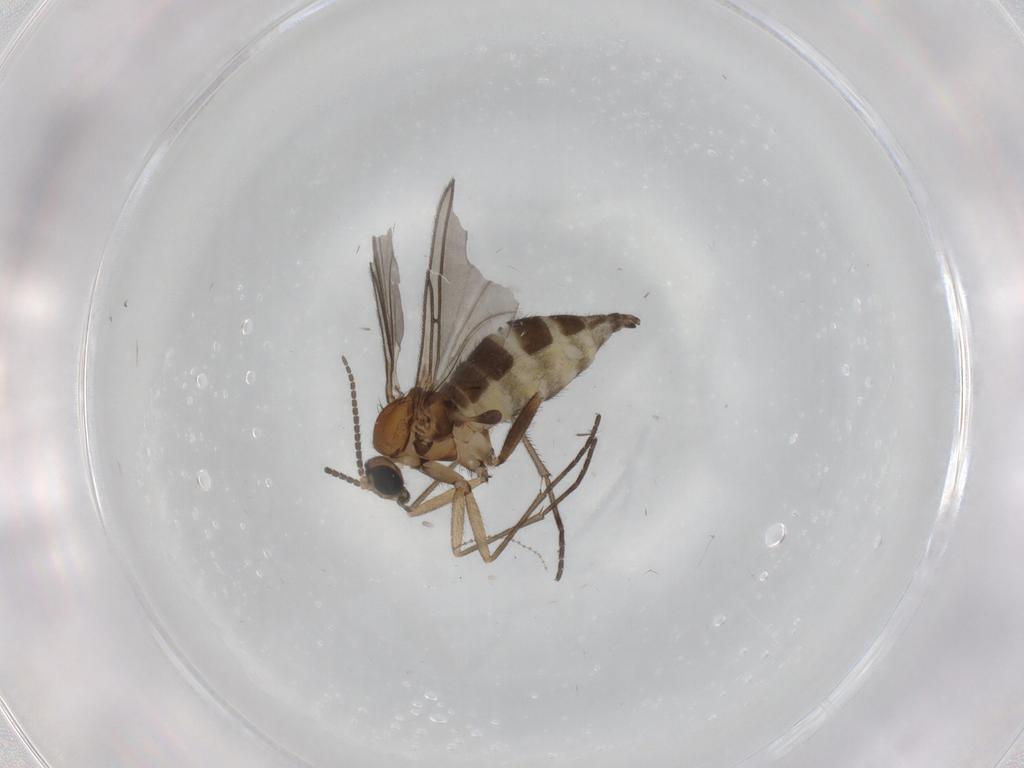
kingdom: Animalia
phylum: Arthropoda
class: Insecta
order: Diptera
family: Sciaridae
